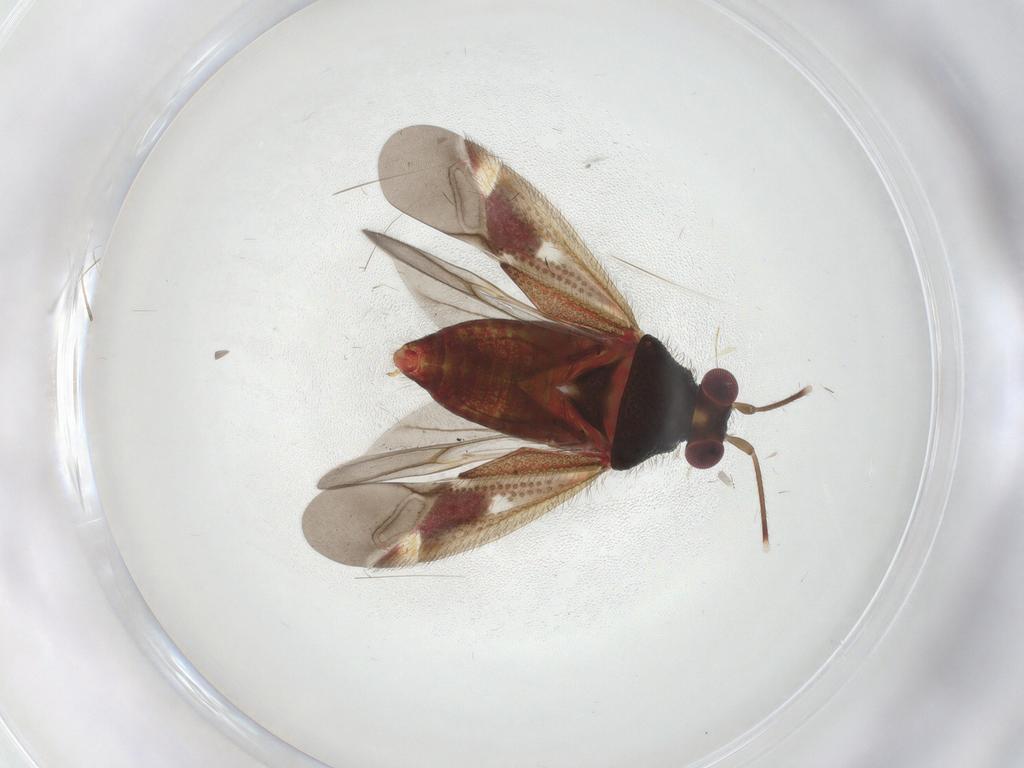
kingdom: Animalia
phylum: Arthropoda
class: Insecta
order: Hemiptera
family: Miridae
